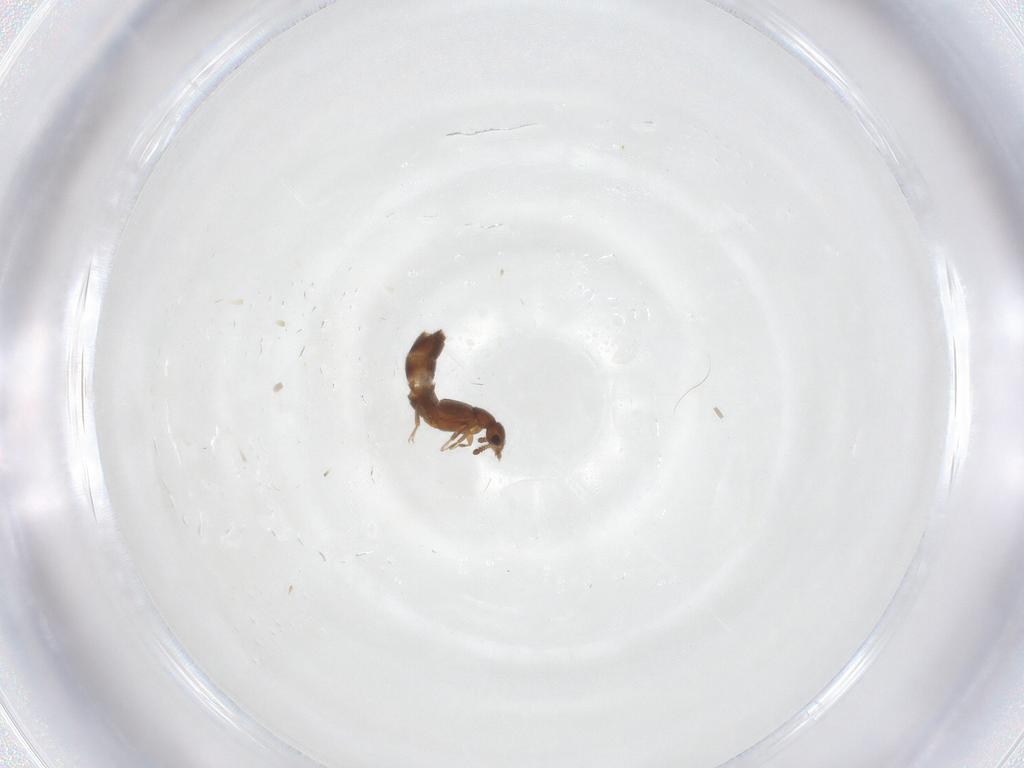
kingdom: Animalia
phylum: Arthropoda
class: Insecta
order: Coleoptera
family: Staphylinidae
